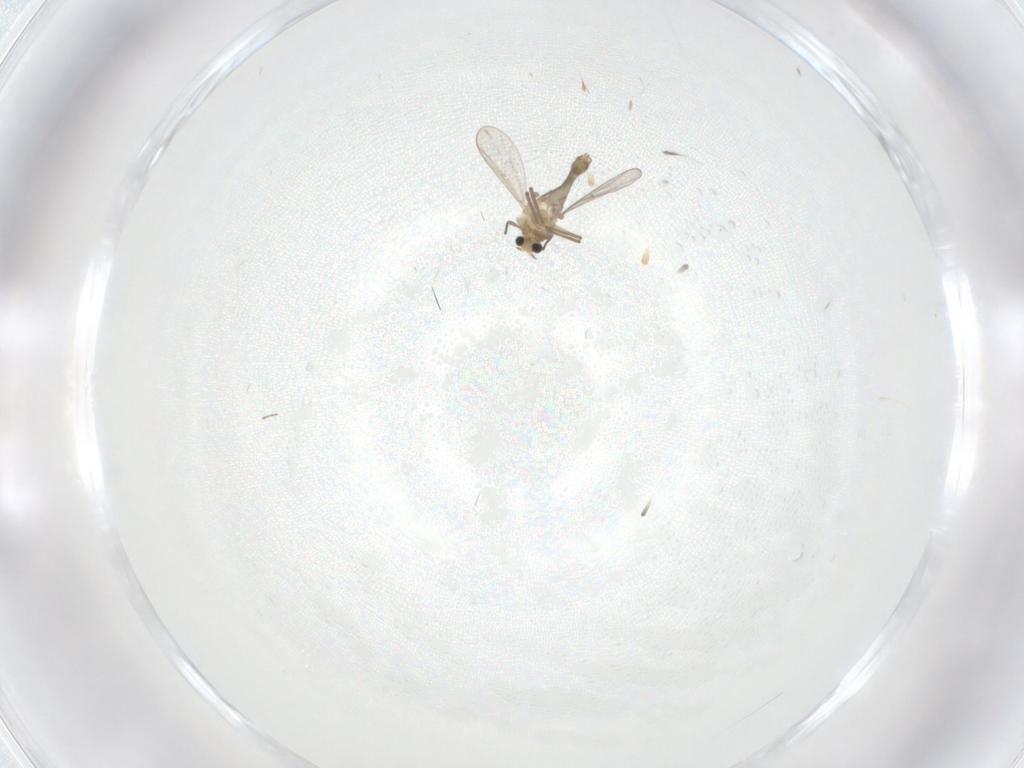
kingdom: Animalia
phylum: Arthropoda
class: Insecta
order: Diptera
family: Chironomidae
